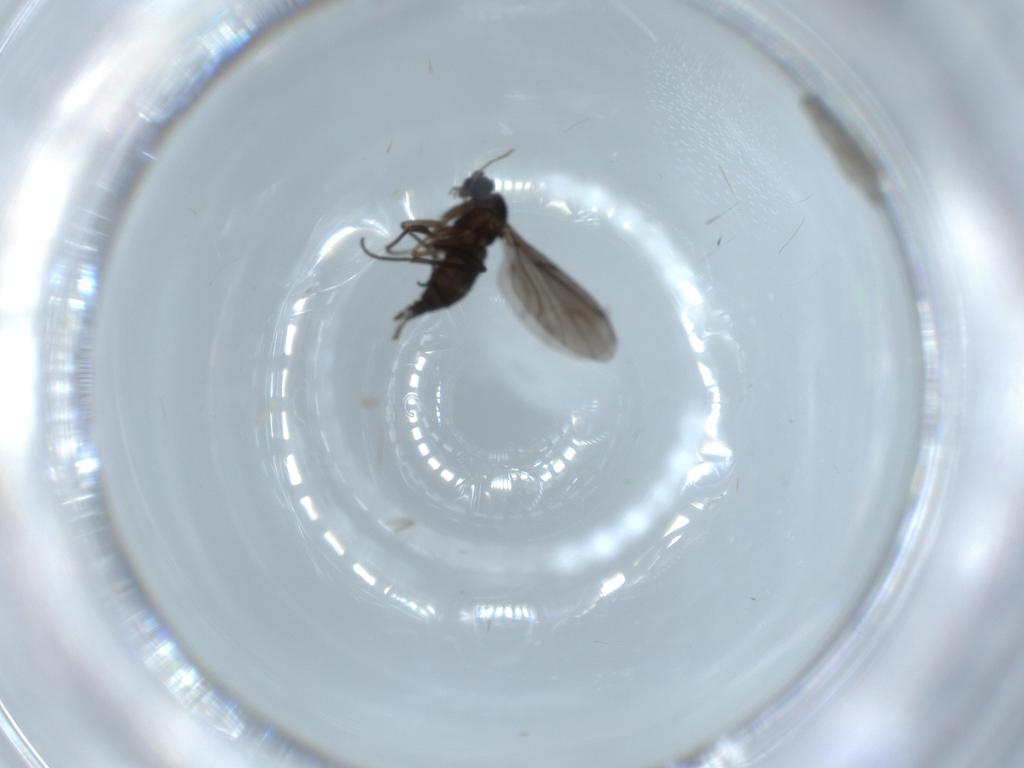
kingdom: Animalia
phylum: Arthropoda
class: Insecta
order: Diptera
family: Sciaridae
